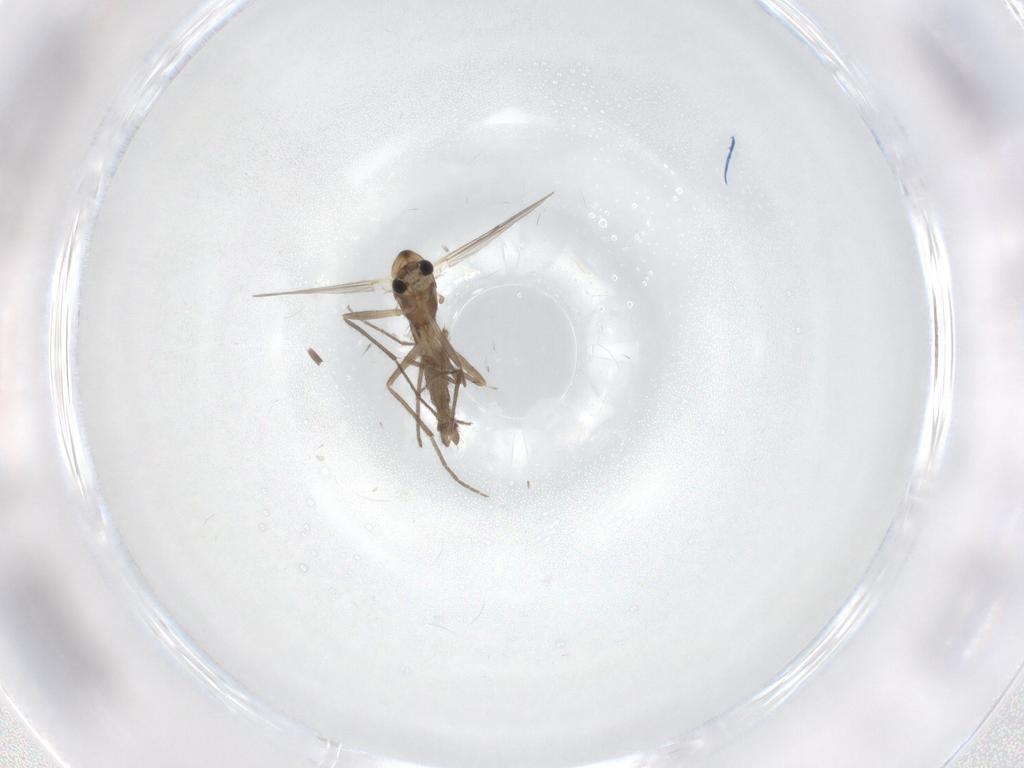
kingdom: Animalia
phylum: Arthropoda
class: Insecta
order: Diptera
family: Chironomidae
